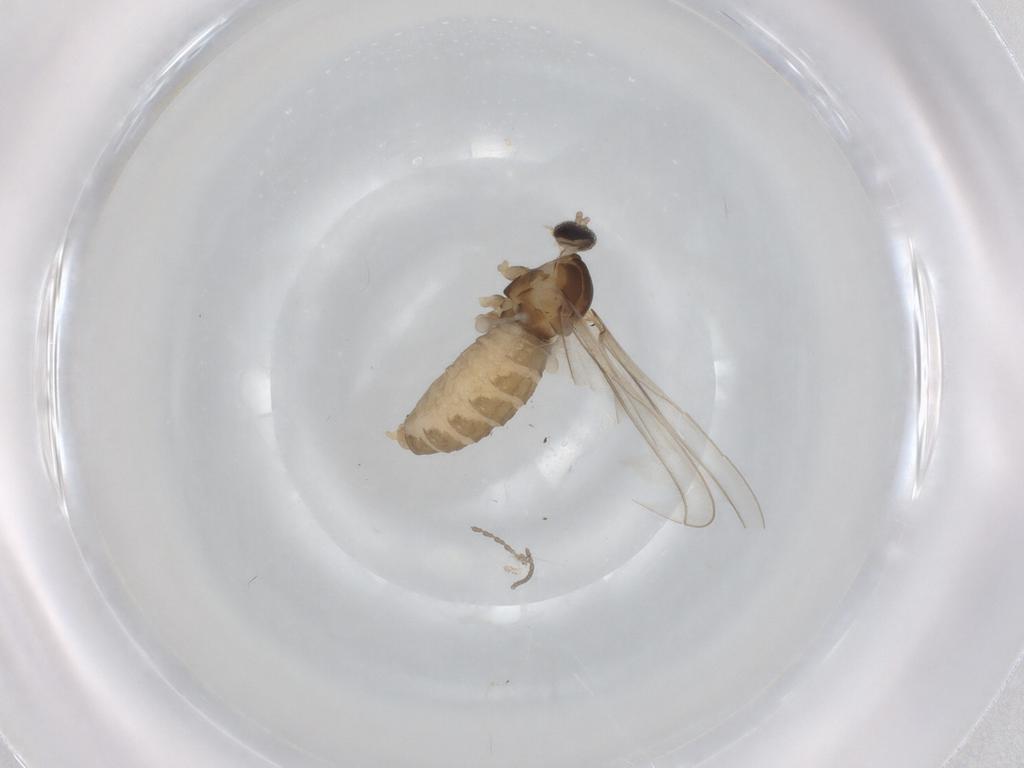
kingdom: Animalia
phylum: Arthropoda
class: Insecta
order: Diptera
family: Cecidomyiidae
